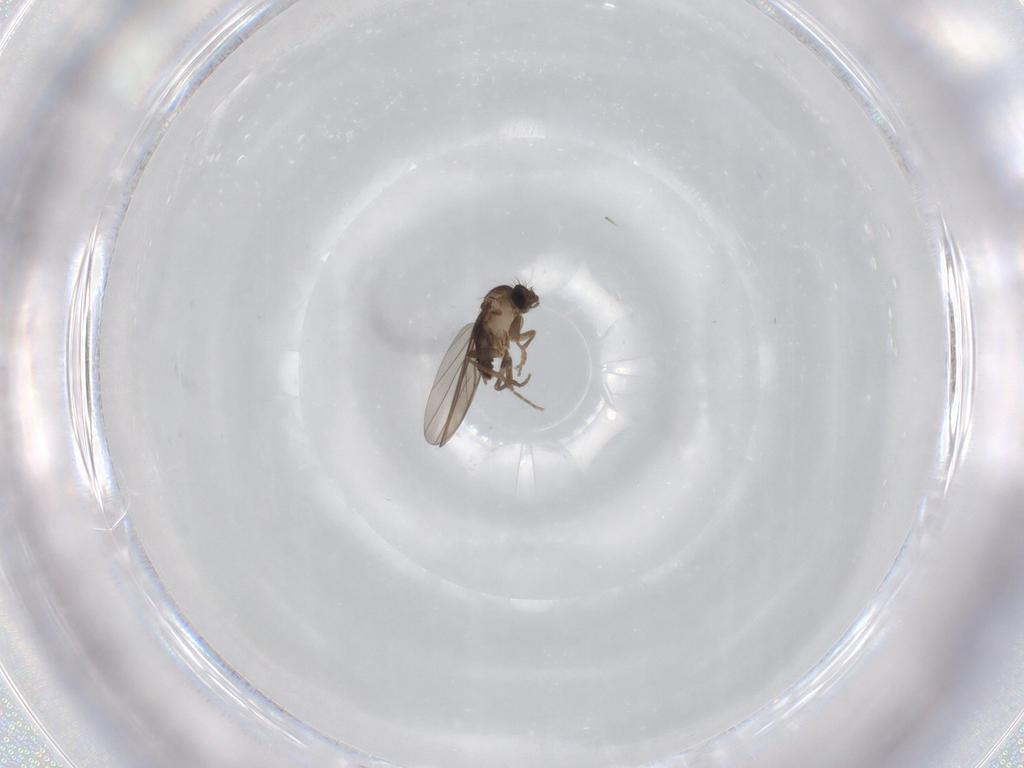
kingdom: Animalia
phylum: Arthropoda
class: Insecta
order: Diptera
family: Phoridae
